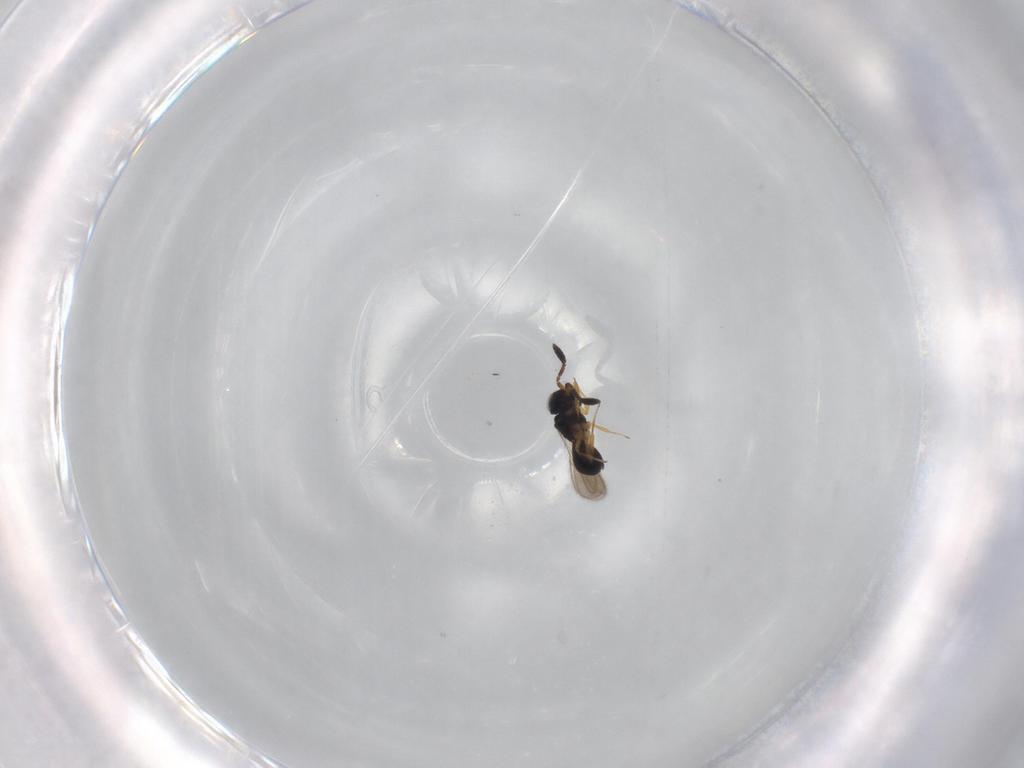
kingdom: Animalia
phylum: Arthropoda
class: Insecta
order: Hymenoptera
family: Scelionidae
